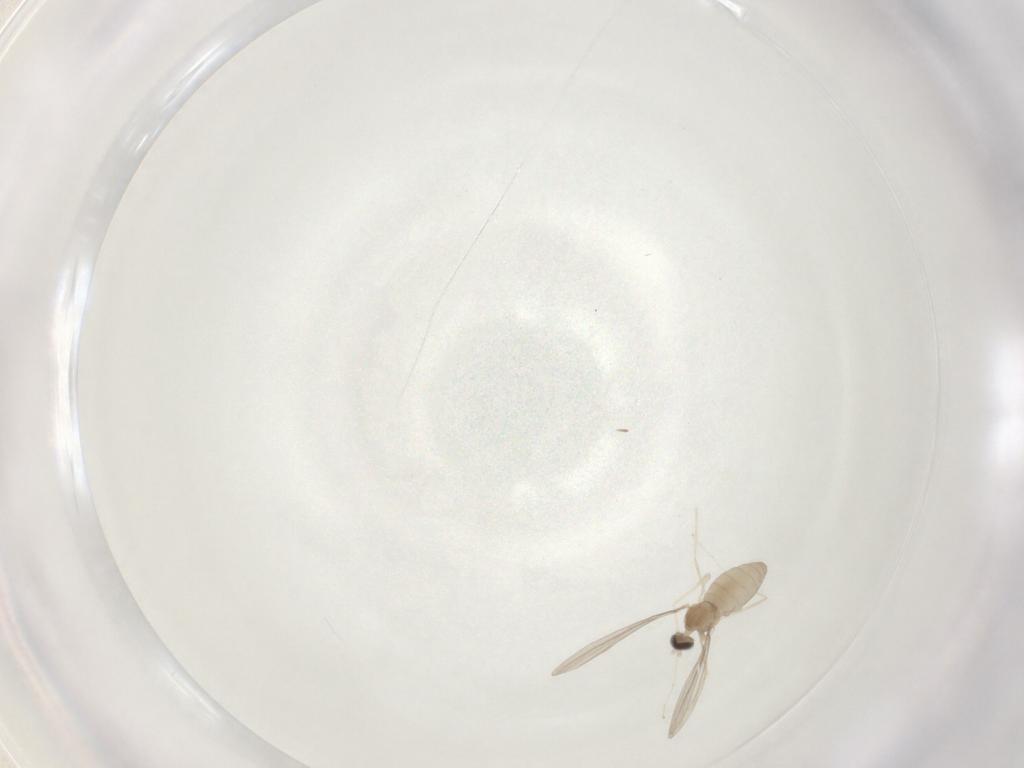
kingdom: Animalia
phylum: Arthropoda
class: Insecta
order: Diptera
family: Cecidomyiidae
